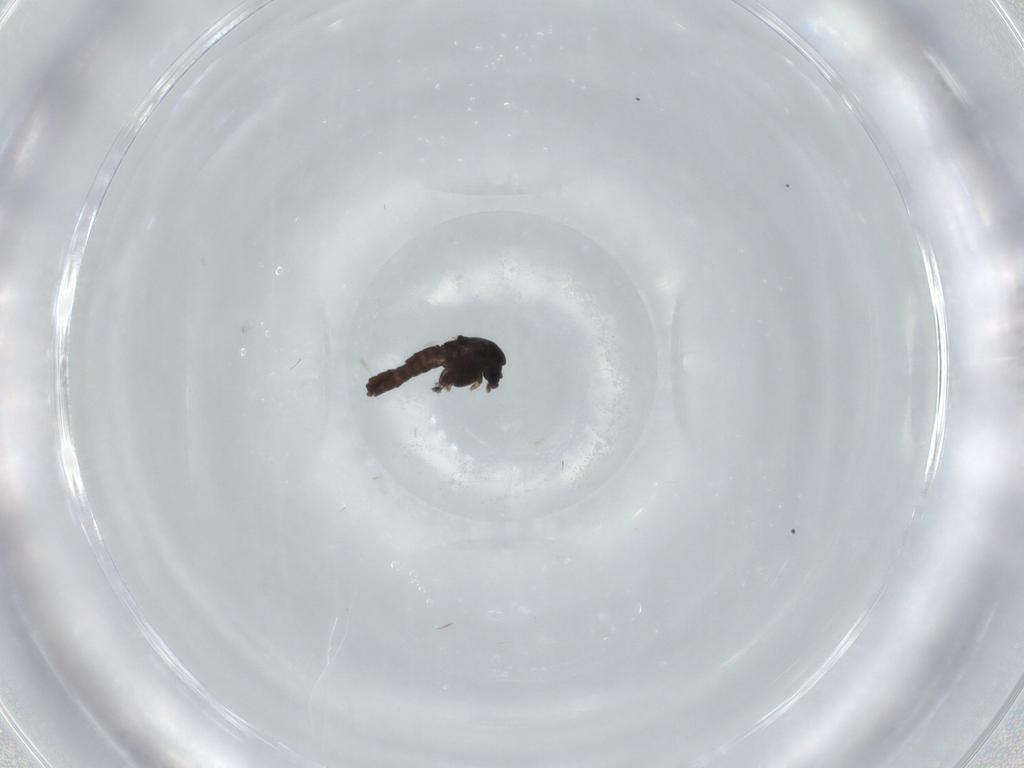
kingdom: Animalia
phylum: Arthropoda
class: Insecta
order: Diptera
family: Chironomidae
